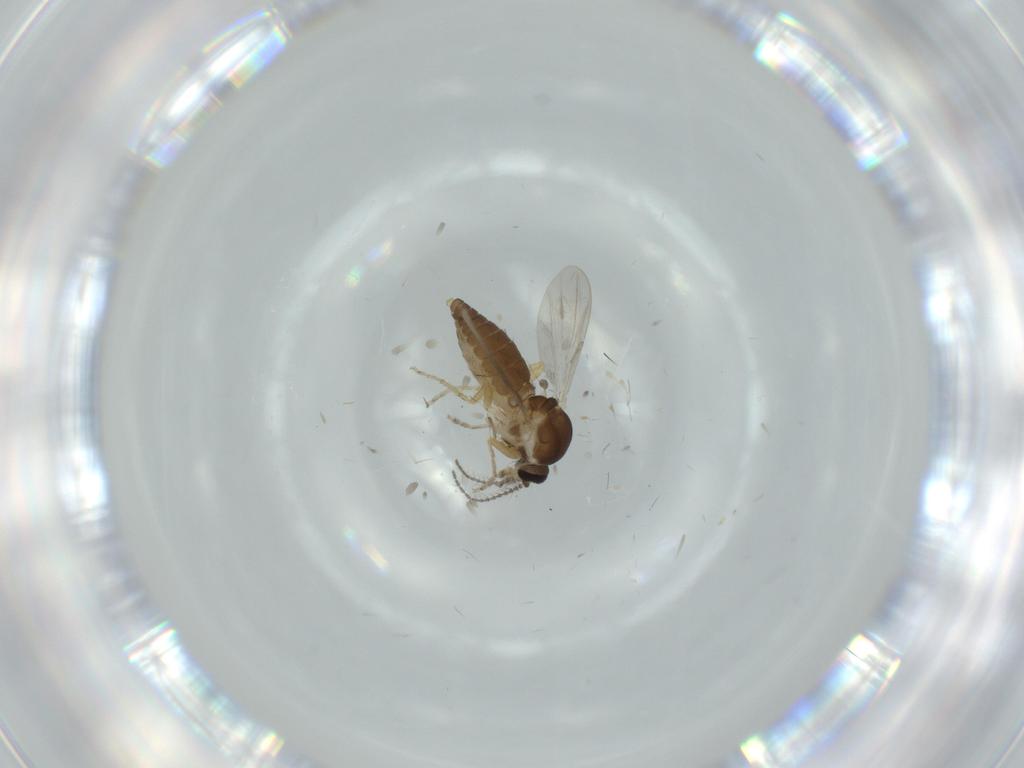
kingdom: Animalia
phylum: Arthropoda
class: Insecta
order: Diptera
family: Ceratopogonidae
